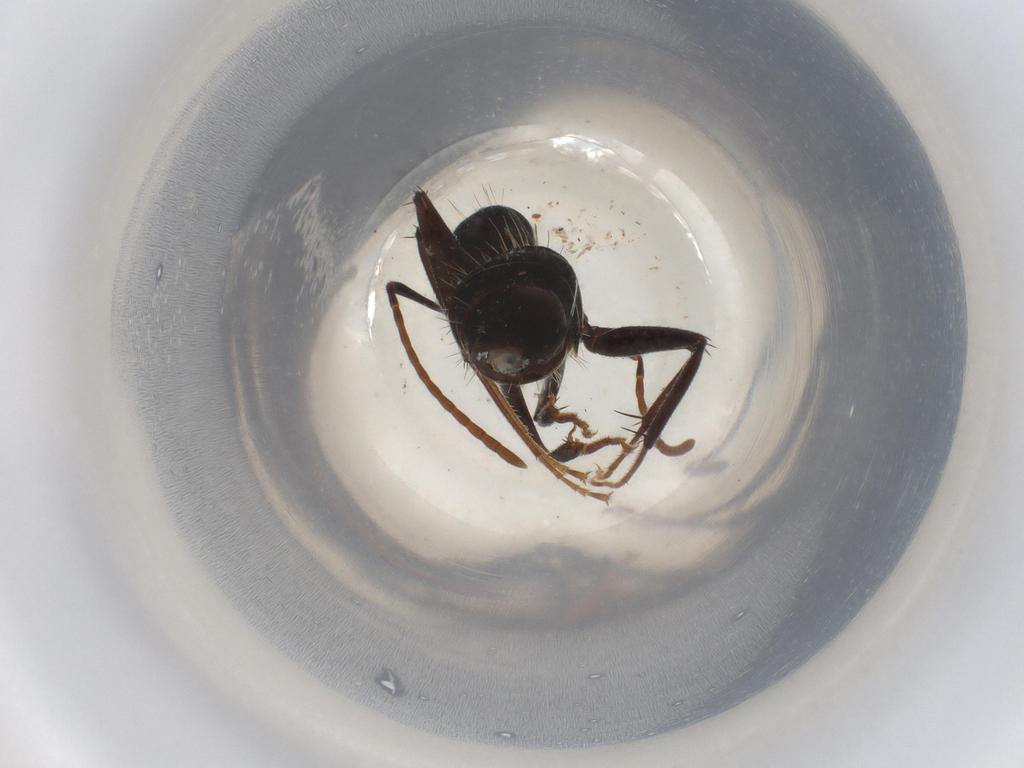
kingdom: Animalia
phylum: Arthropoda
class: Insecta
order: Hymenoptera
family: Formicidae
